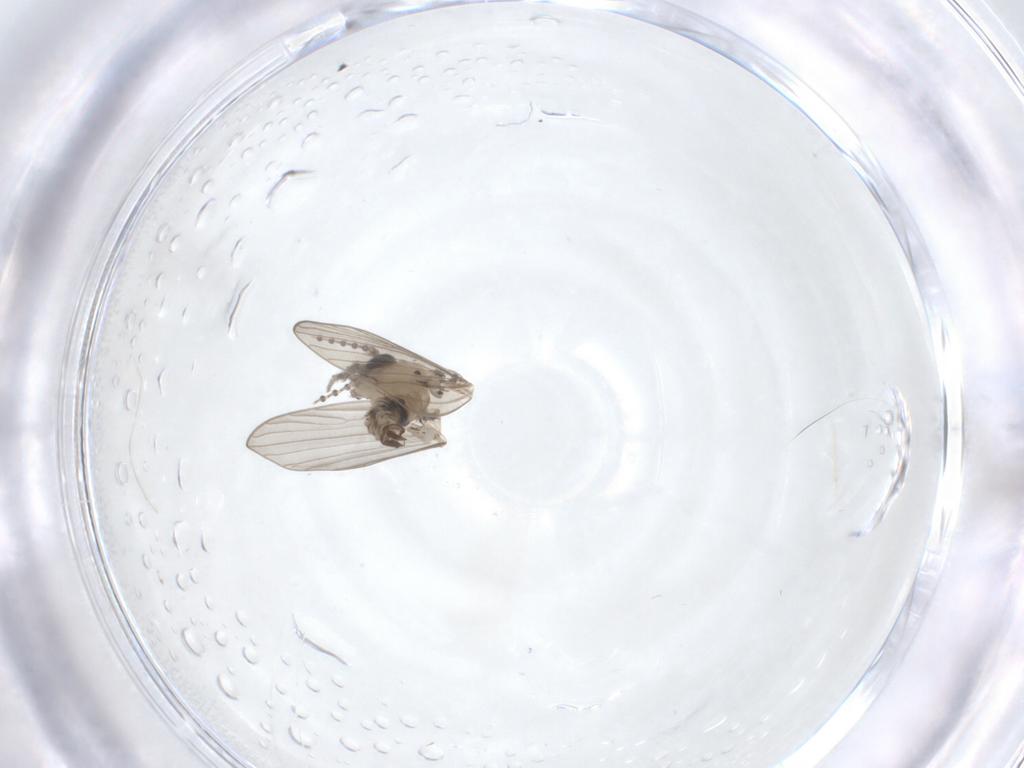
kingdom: Animalia
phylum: Arthropoda
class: Insecta
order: Diptera
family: Psychodidae
